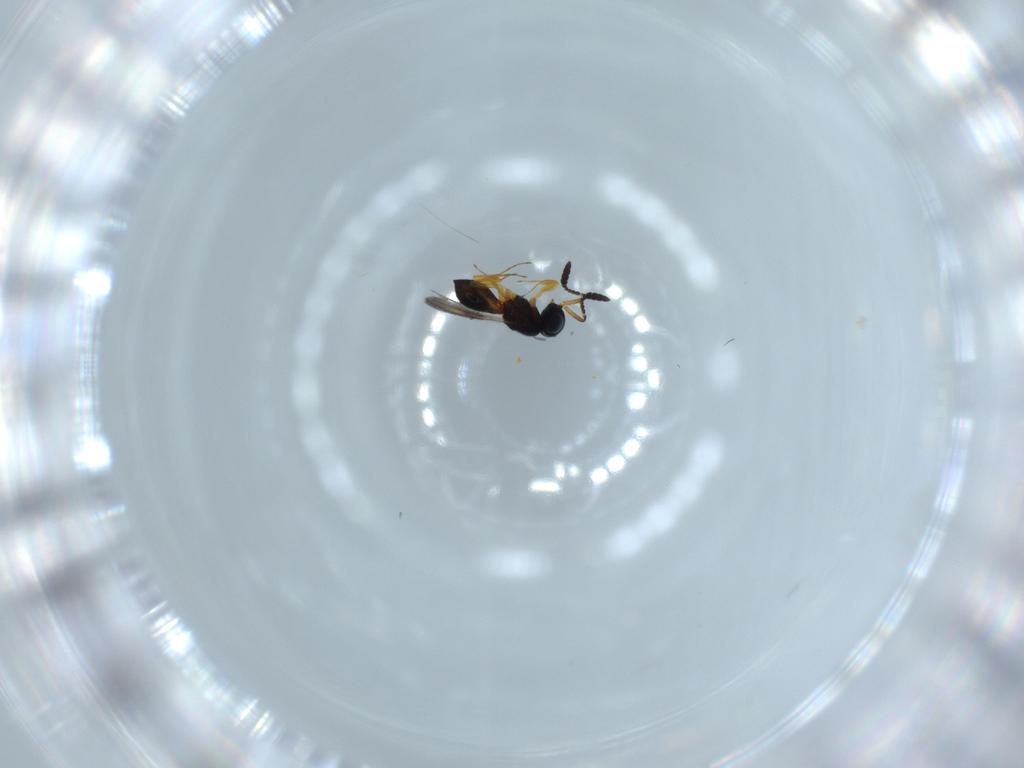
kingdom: Animalia
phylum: Arthropoda
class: Insecta
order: Hymenoptera
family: Scelionidae
